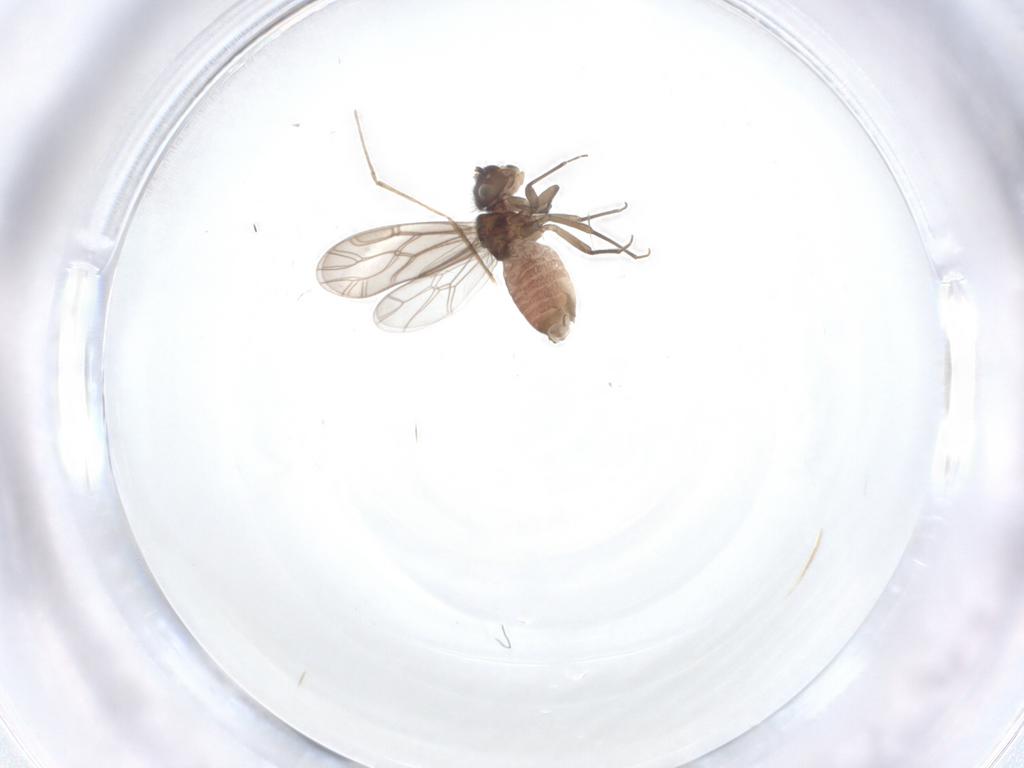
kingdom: Animalia
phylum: Arthropoda
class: Insecta
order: Psocodea
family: Ectopsocidae
